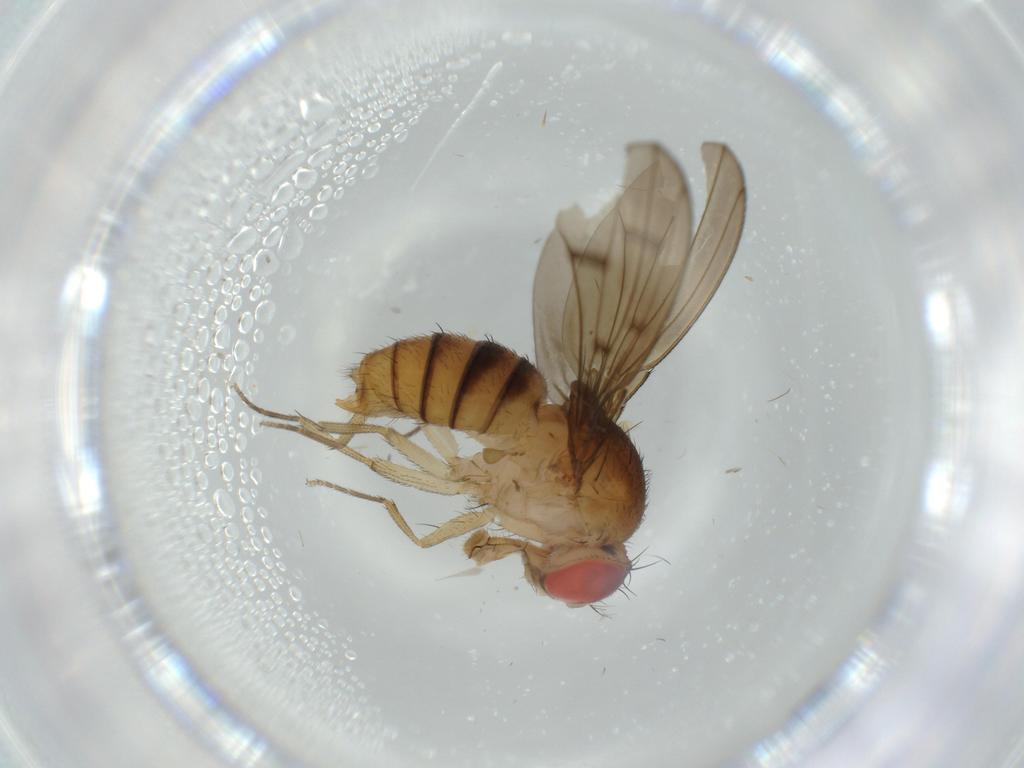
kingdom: Animalia
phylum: Arthropoda
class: Insecta
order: Diptera
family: Drosophilidae
